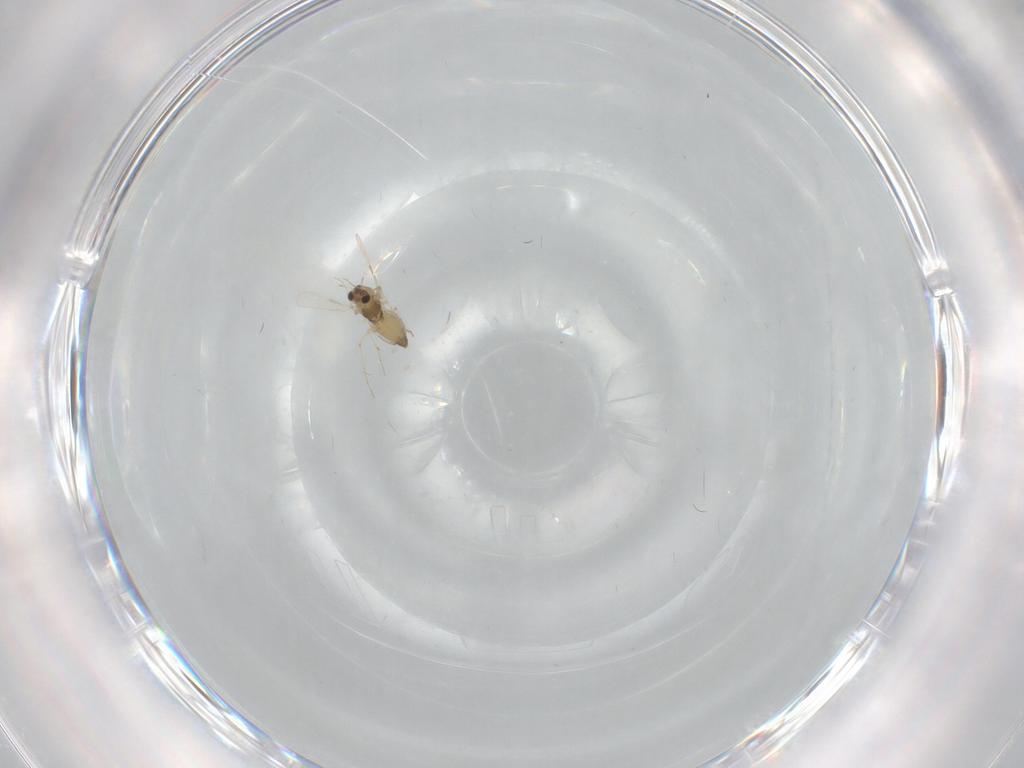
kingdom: Animalia
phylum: Arthropoda
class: Insecta
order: Diptera
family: Chironomidae
